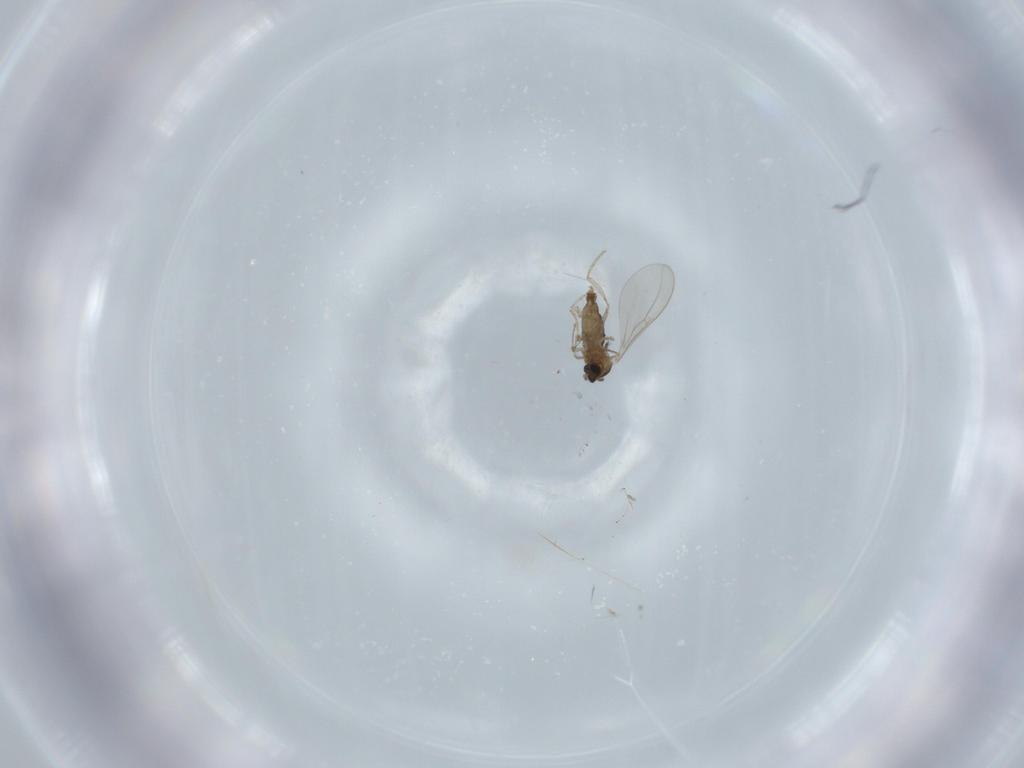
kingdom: Animalia
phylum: Arthropoda
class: Insecta
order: Diptera
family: Cecidomyiidae
